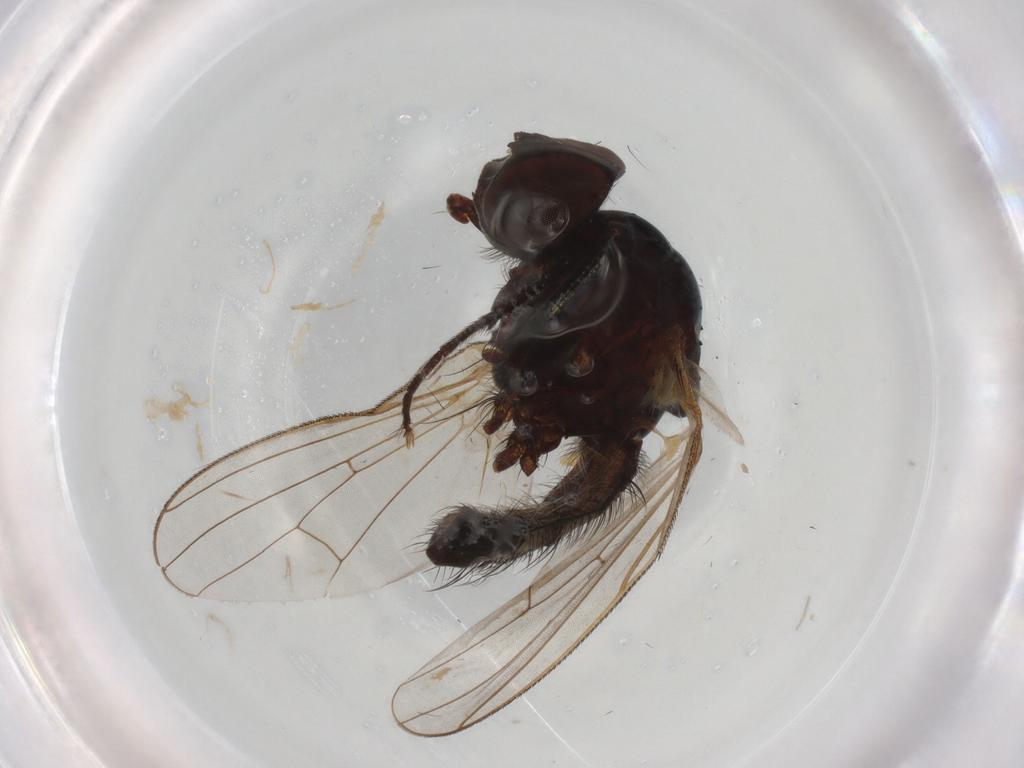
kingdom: Animalia
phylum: Arthropoda
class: Insecta
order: Diptera
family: Anthomyiidae
